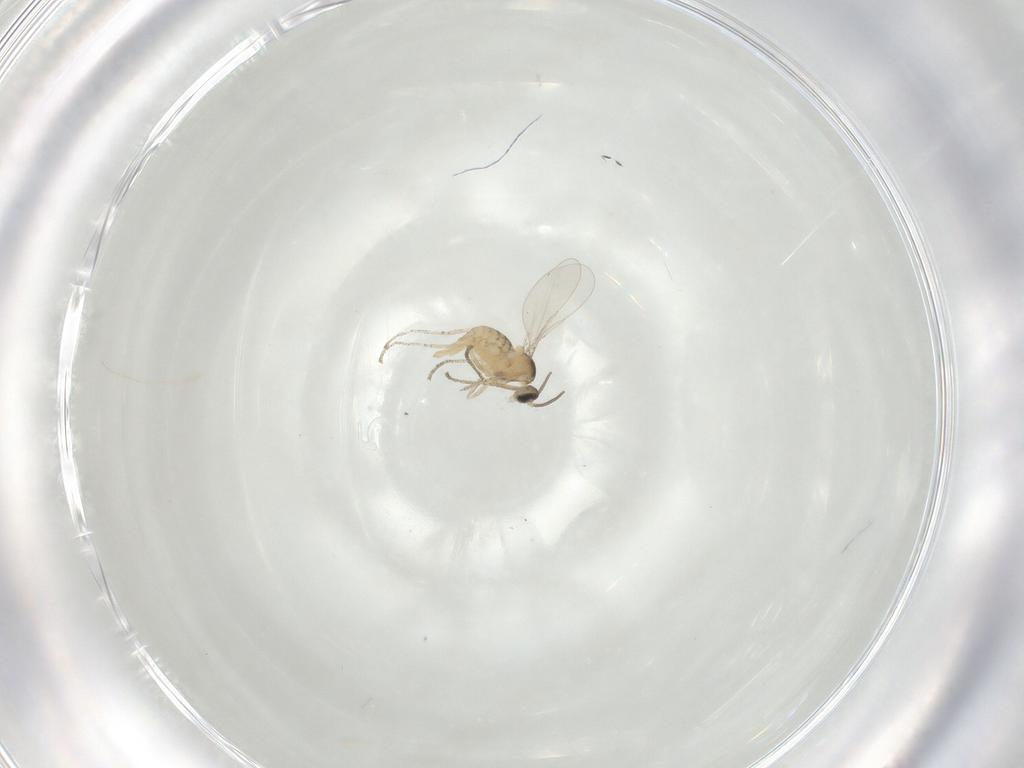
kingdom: Animalia
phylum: Arthropoda
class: Insecta
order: Diptera
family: Cecidomyiidae
